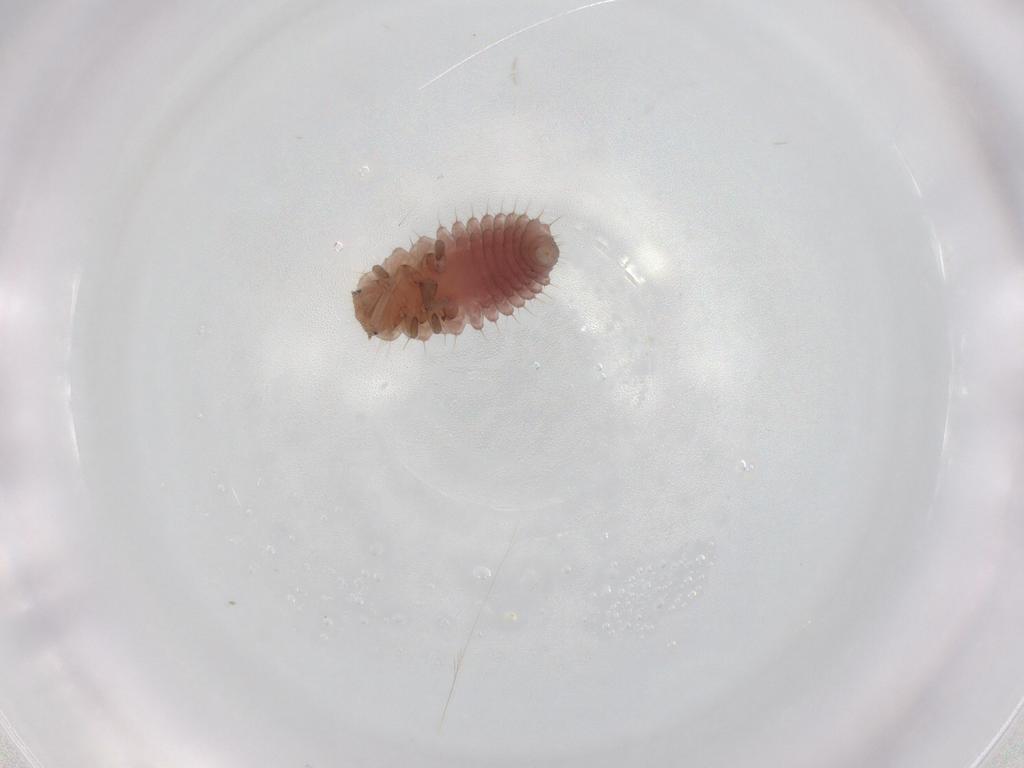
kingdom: Animalia
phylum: Arthropoda
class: Insecta
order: Coleoptera
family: Coccinellidae
